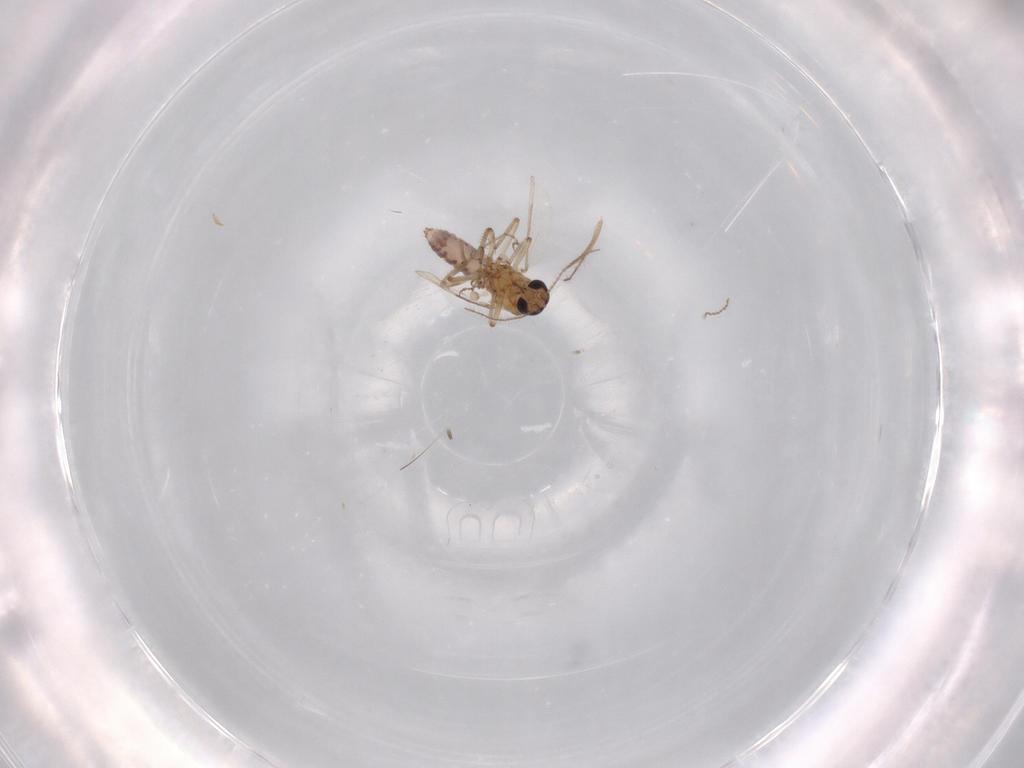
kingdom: Animalia
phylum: Arthropoda
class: Insecta
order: Diptera
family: Ceratopogonidae
